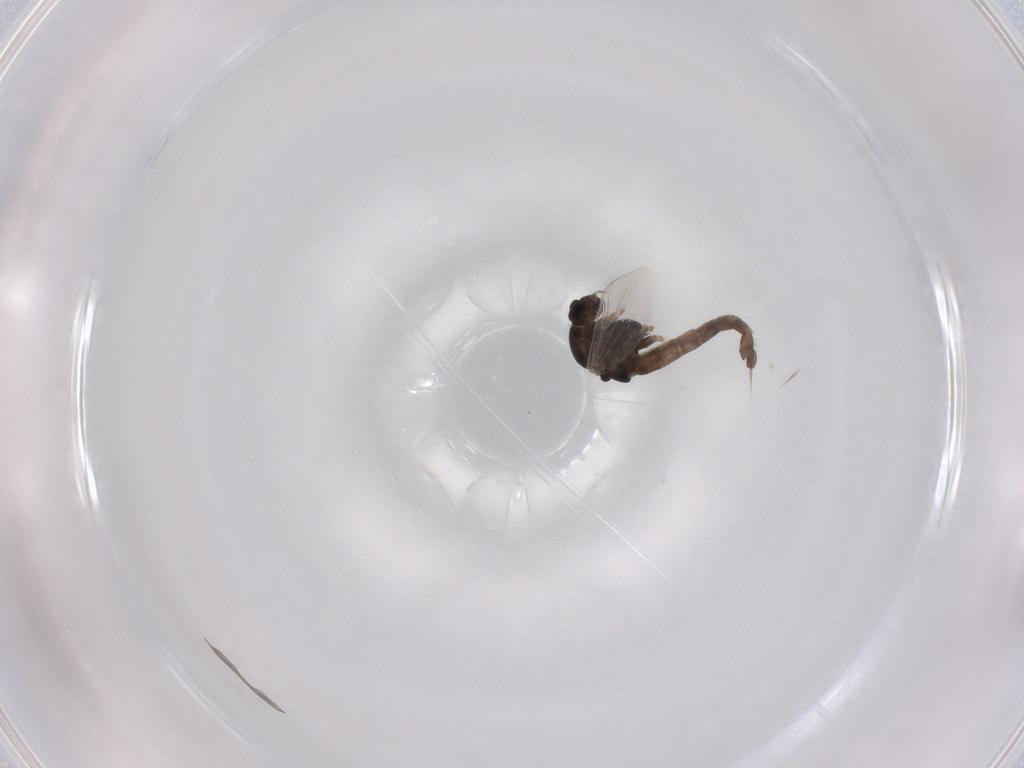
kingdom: Animalia
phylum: Arthropoda
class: Insecta
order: Diptera
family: Chironomidae
